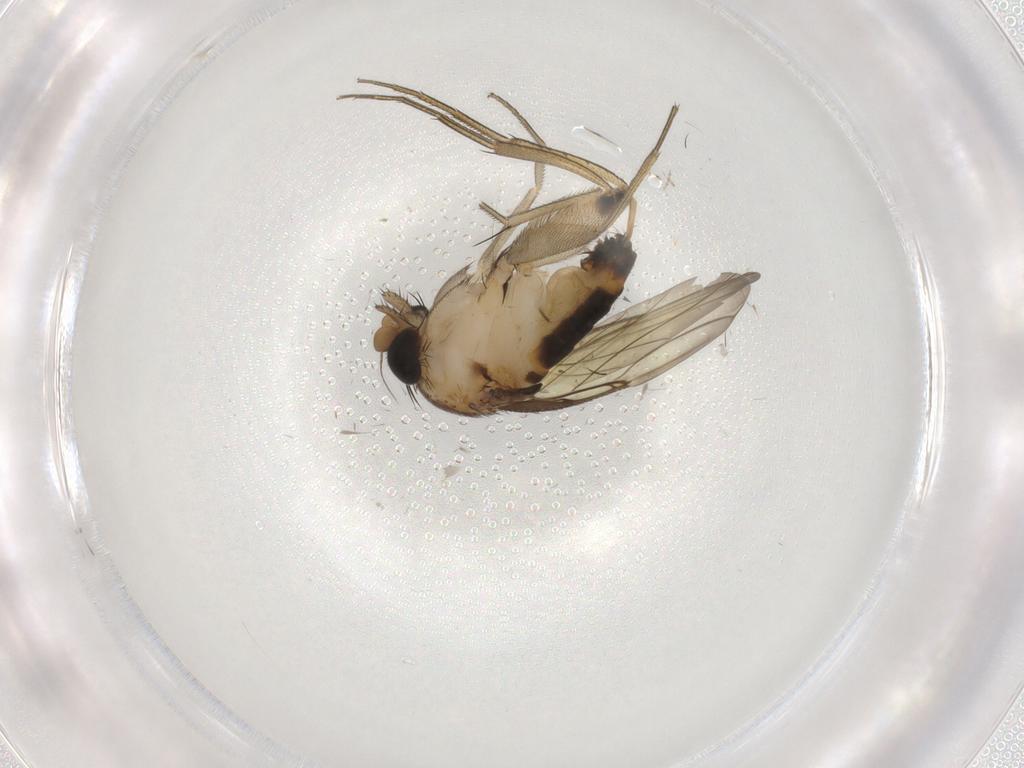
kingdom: Animalia
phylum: Arthropoda
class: Insecta
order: Diptera
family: Phoridae
